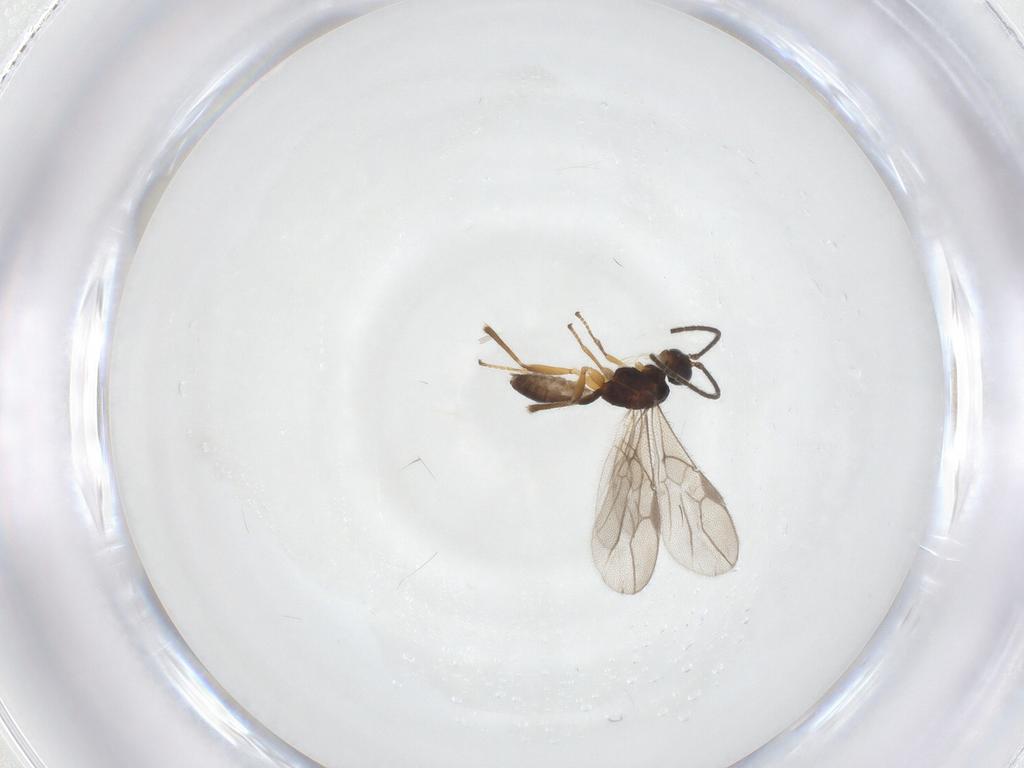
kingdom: Animalia
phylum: Arthropoda
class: Insecta
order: Hymenoptera
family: Braconidae
